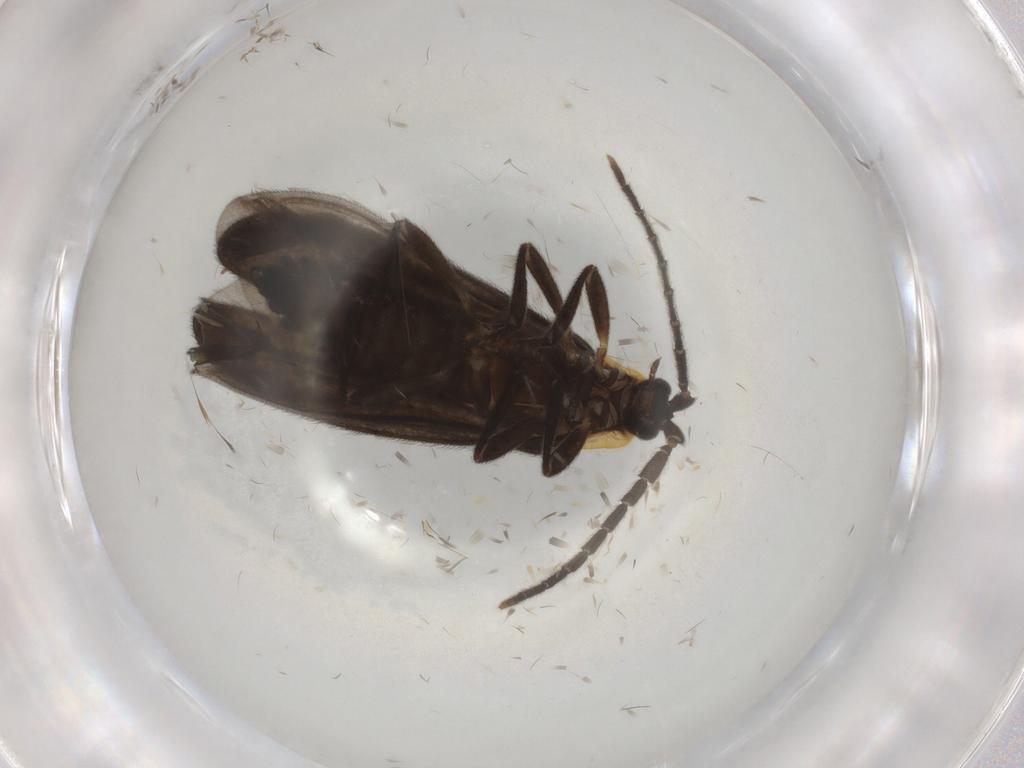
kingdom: Animalia
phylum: Arthropoda
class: Insecta
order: Coleoptera
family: Lycidae
